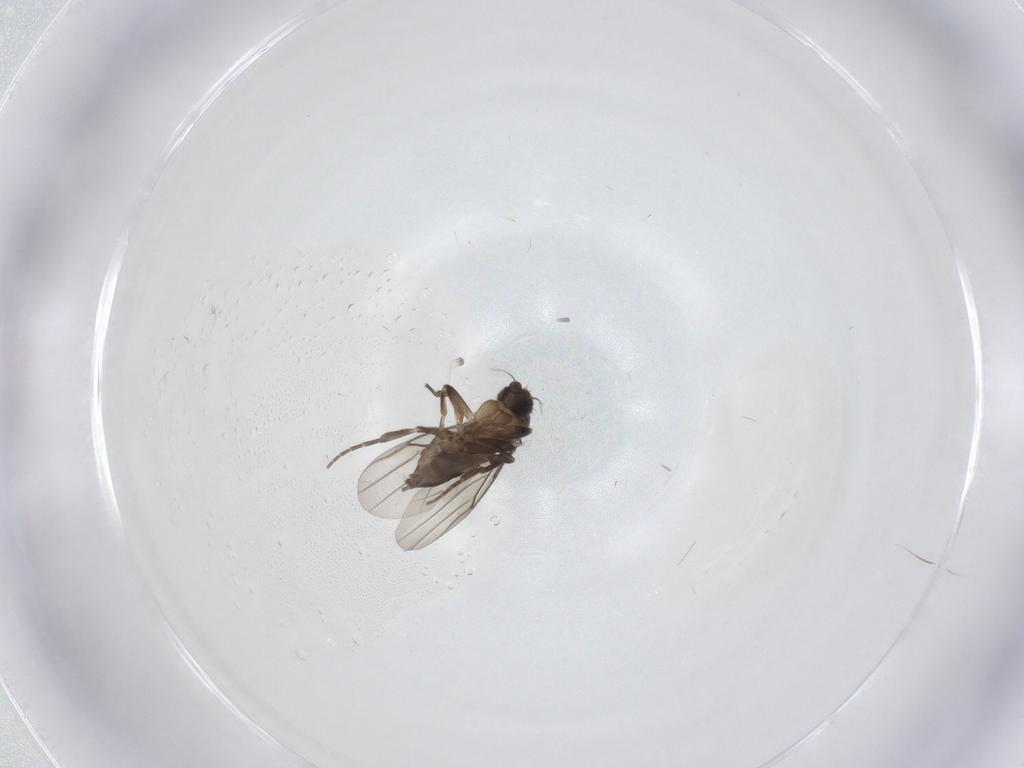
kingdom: Animalia
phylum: Arthropoda
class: Insecta
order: Diptera
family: Phoridae
